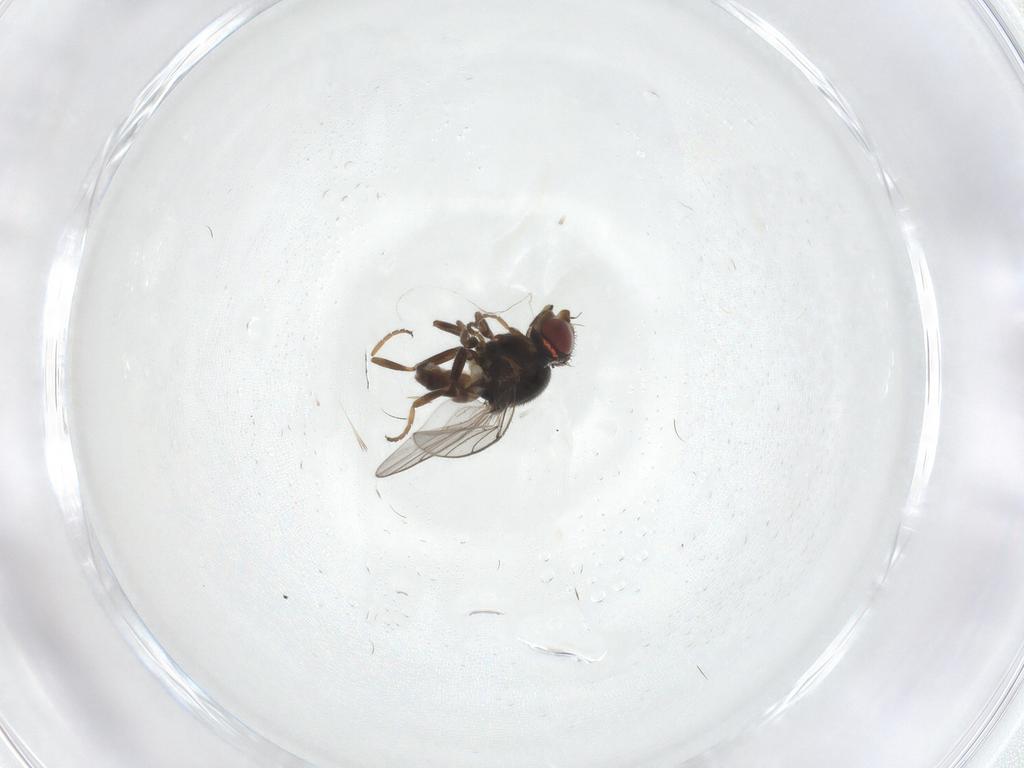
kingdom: Animalia
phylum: Arthropoda
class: Insecta
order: Diptera
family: Chloropidae
